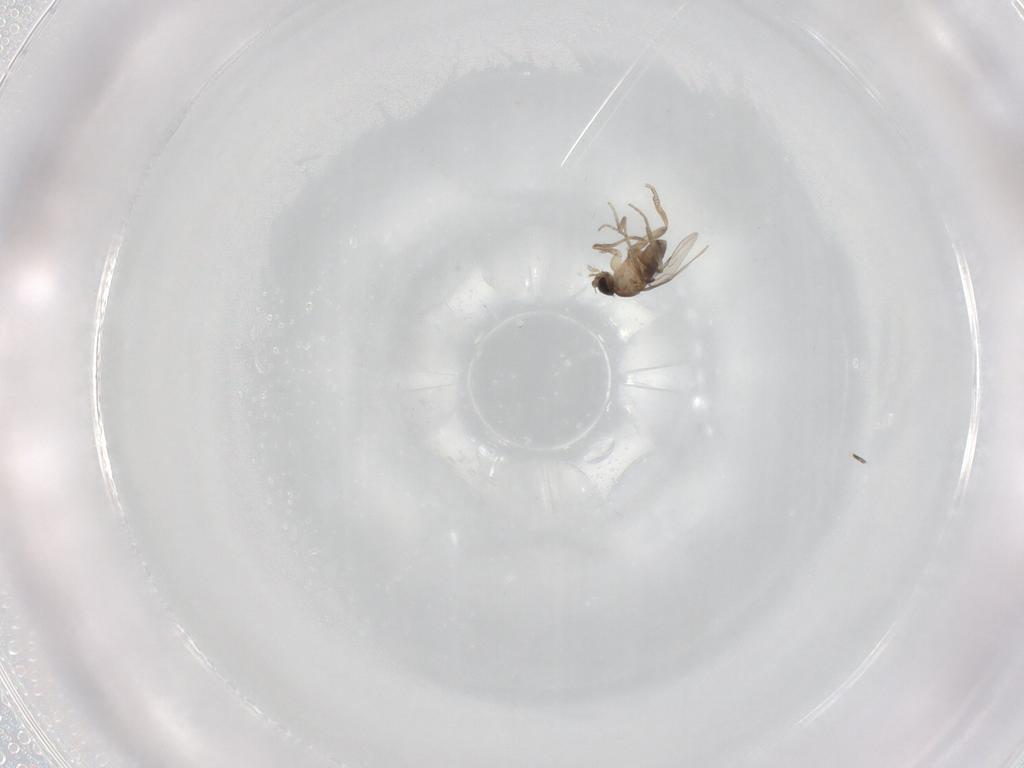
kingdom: Animalia
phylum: Arthropoda
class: Insecta
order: Diptera
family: Phoridae
